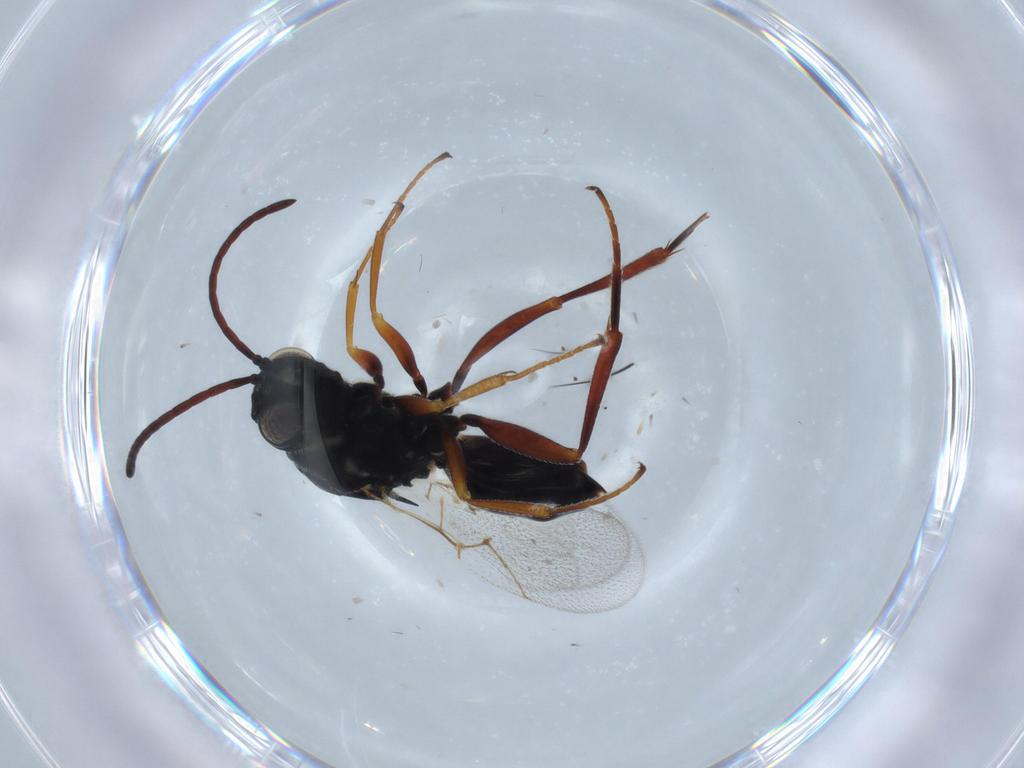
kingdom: Animalia
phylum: Arthropoda
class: Insecta
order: Hymenoptera
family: Figitidae
